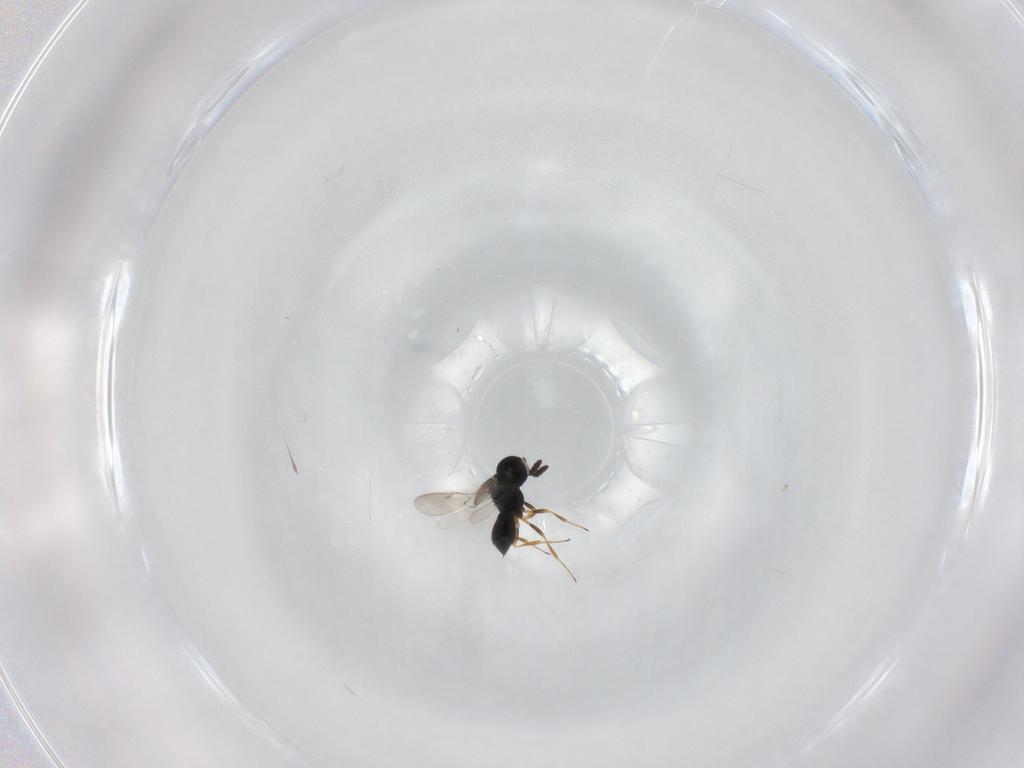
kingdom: Animalia
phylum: Arthropoda
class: Insecta
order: Hymenoptera
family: Scelionidae
